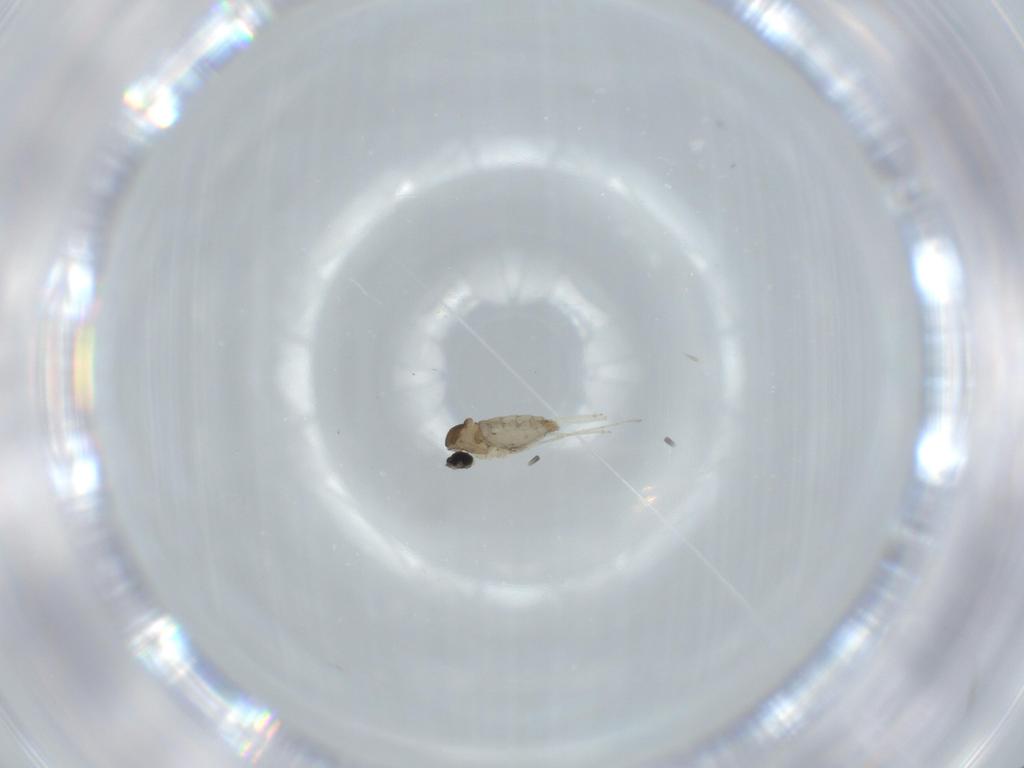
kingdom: Animalia
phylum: Arthropoda
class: Insecta
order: Diptera
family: Cecidomyiidae
